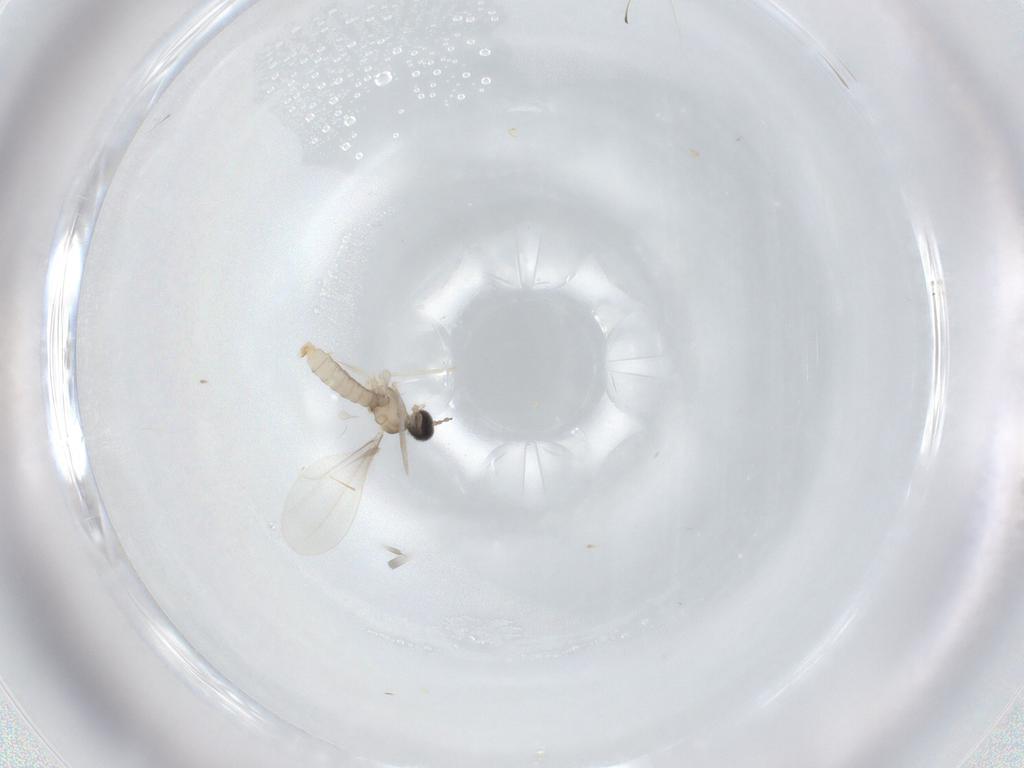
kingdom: Animalia
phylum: Arthropoda
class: Insecta
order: Diptera
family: Cecidomyiidae
